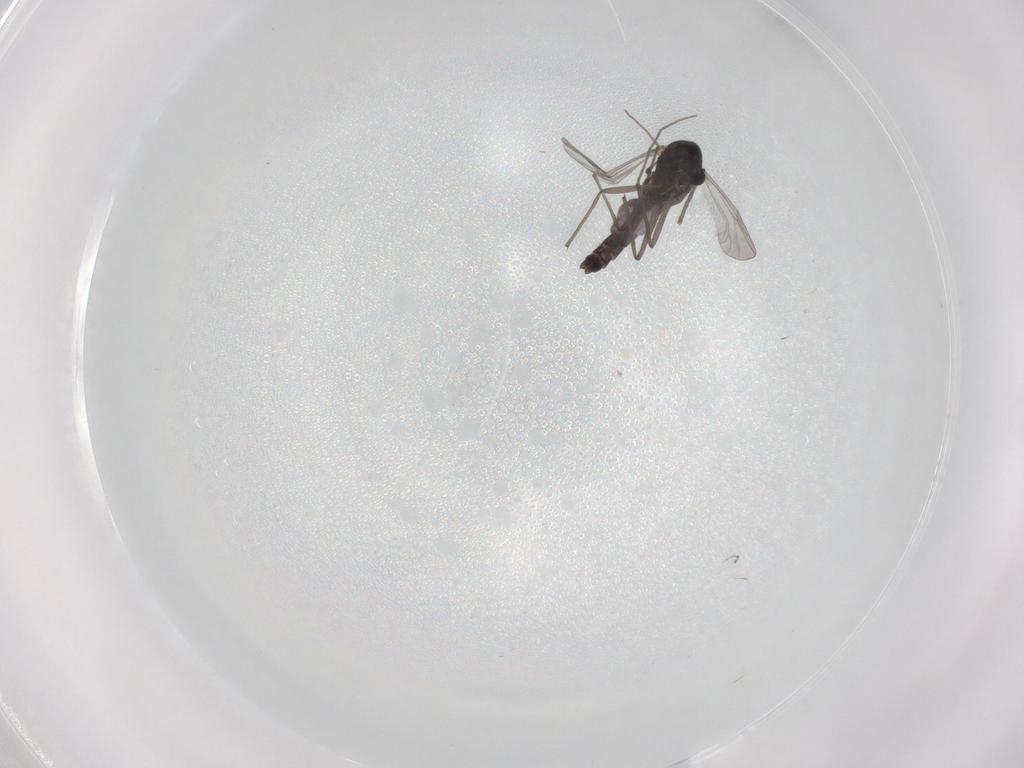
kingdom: Animalia
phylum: Arthropoda
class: Insecta
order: Diptera
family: Chironomidae
